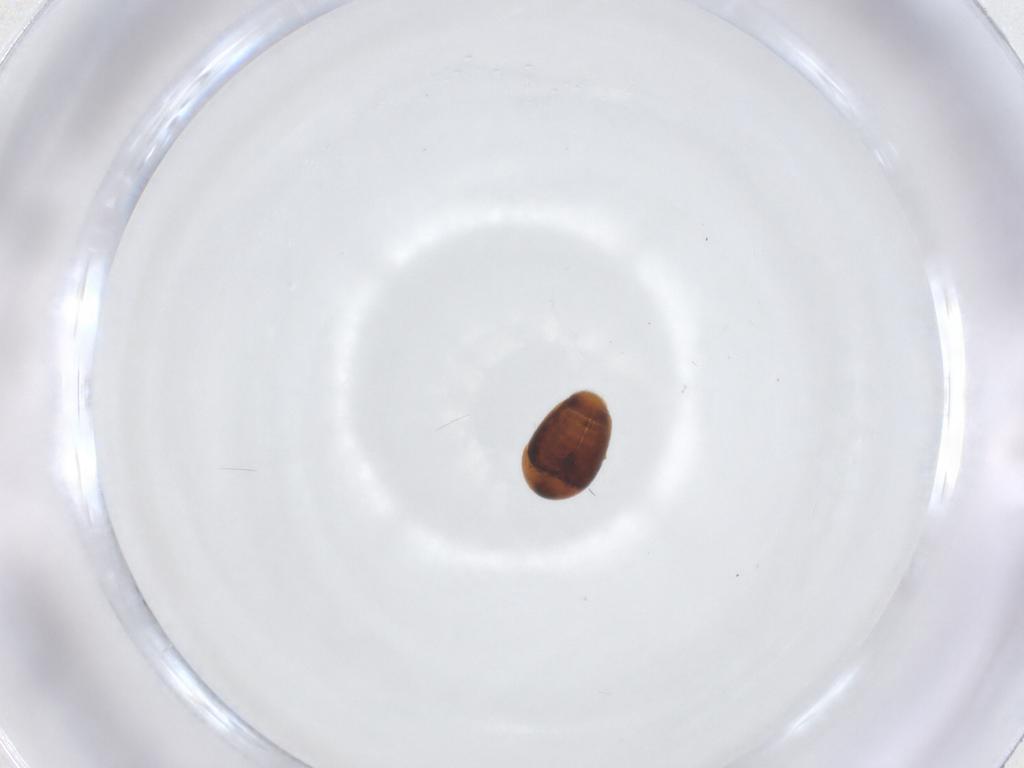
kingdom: Animalia
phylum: Arthropoda
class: Insecta
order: Coleoptera
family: Corylophidae
